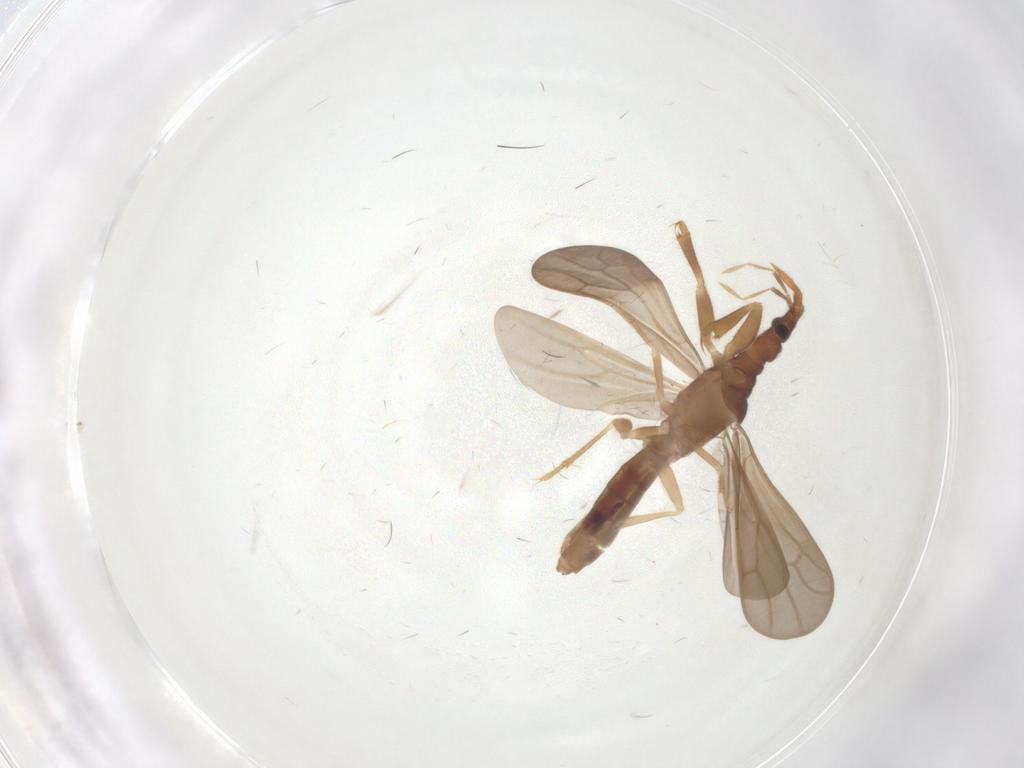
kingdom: Animalia
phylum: Arthropoda
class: Insecta
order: Hemiptera
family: Enicocephalidae
